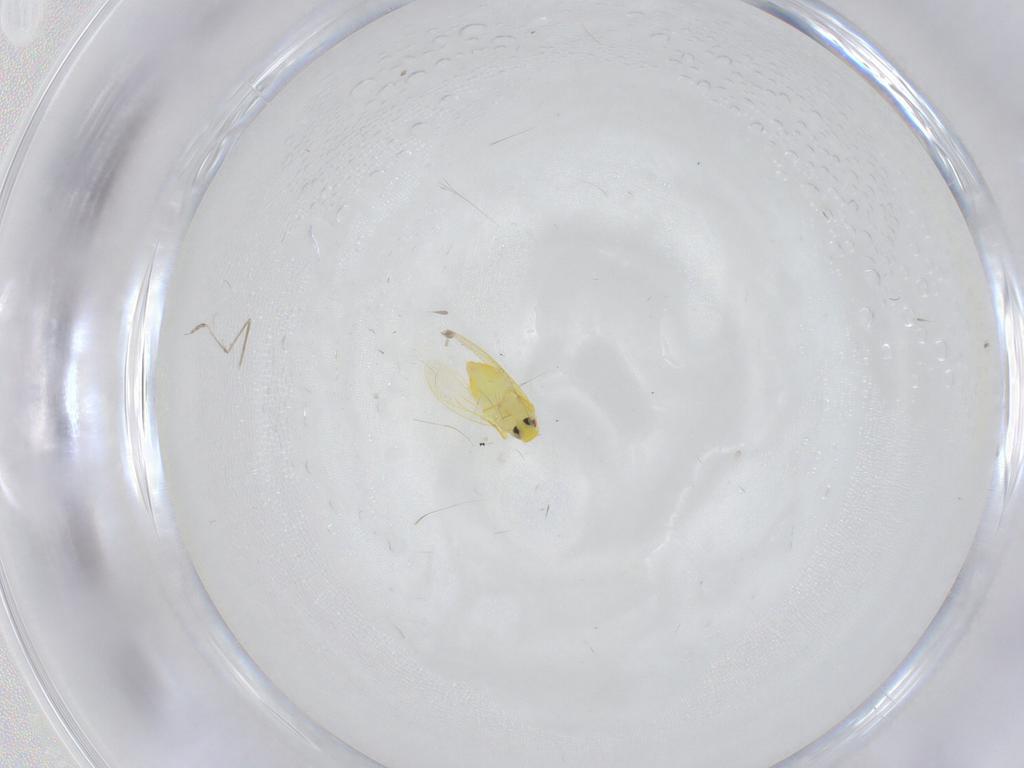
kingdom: Animalia
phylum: Arthropoda
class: Insecta
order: Hemiptera
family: Aleyrodidae
